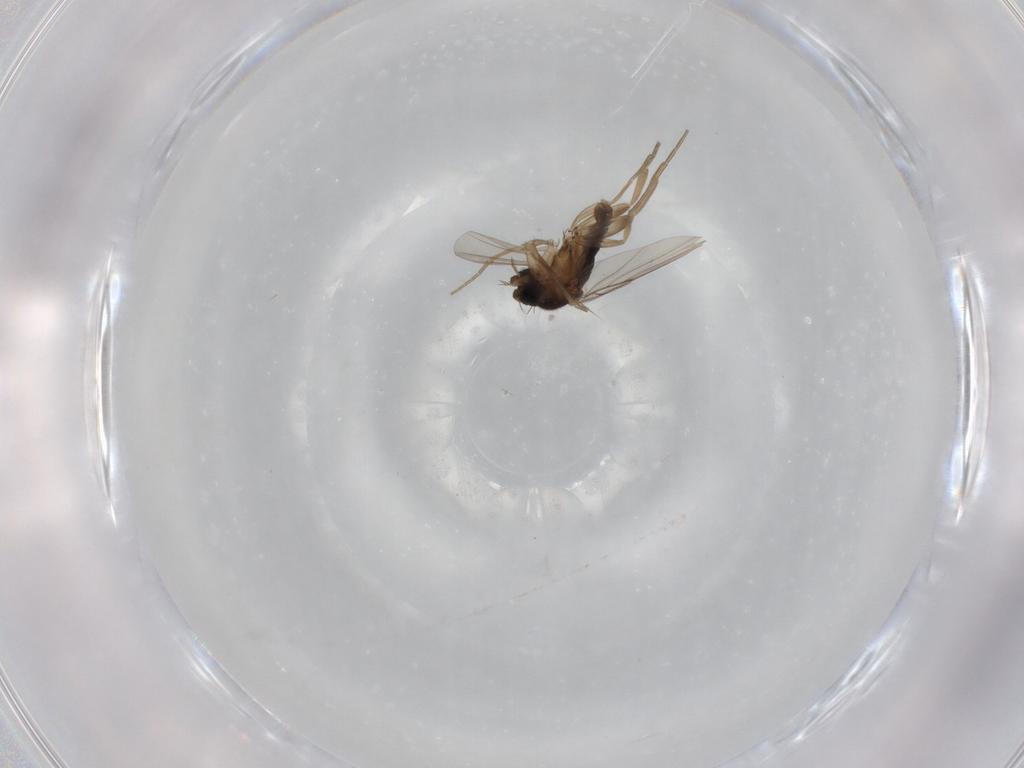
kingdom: Animalia
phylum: Arthropoda
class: Insecta
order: Diptera
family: Phoridae
